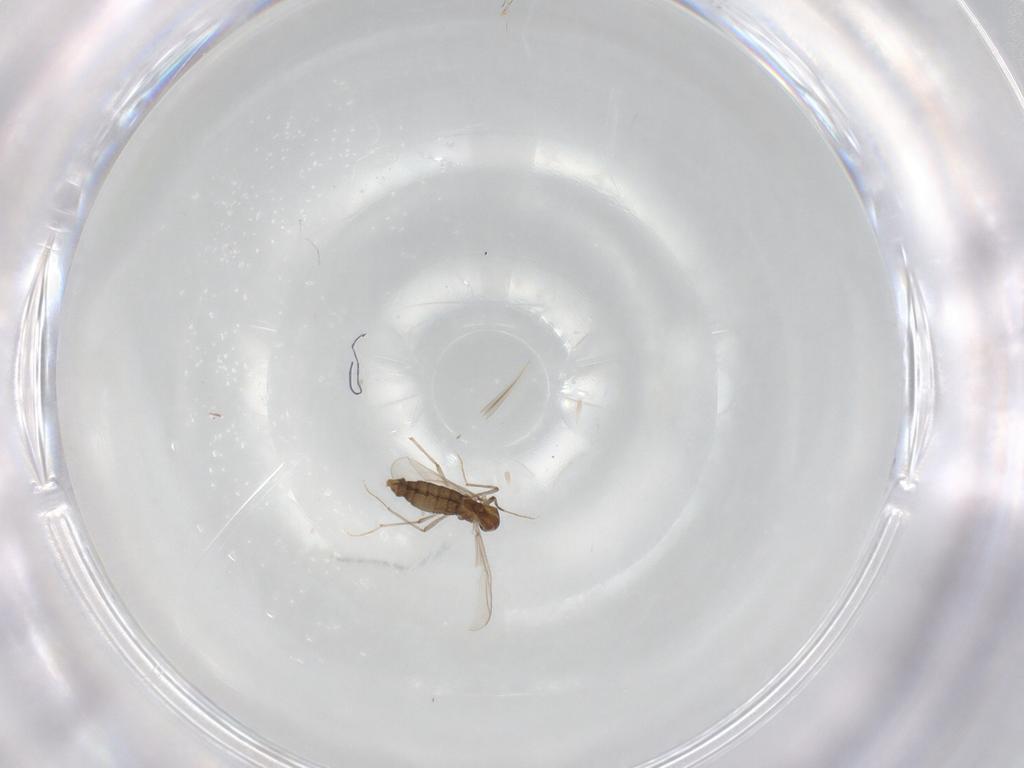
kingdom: Animalia
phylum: Arthropoda
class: Insecta
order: Diptera
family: Chironomidae
